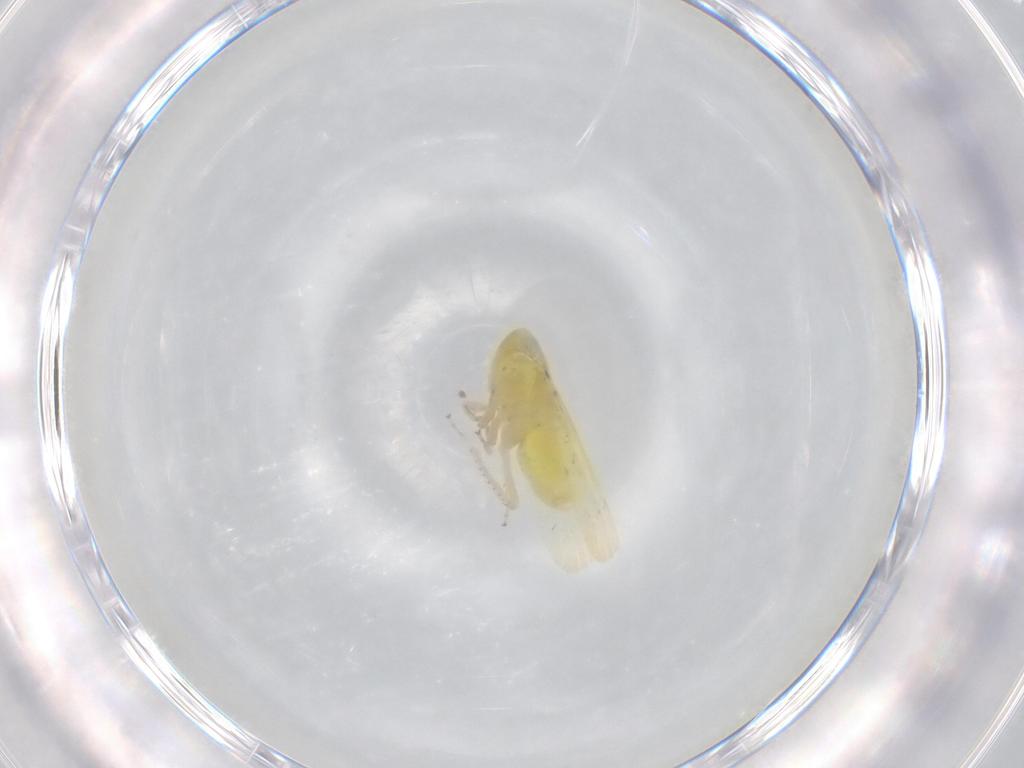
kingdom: Animalia
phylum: Arthropoda
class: Insecta
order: Hemiptera
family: Cicadellidae
